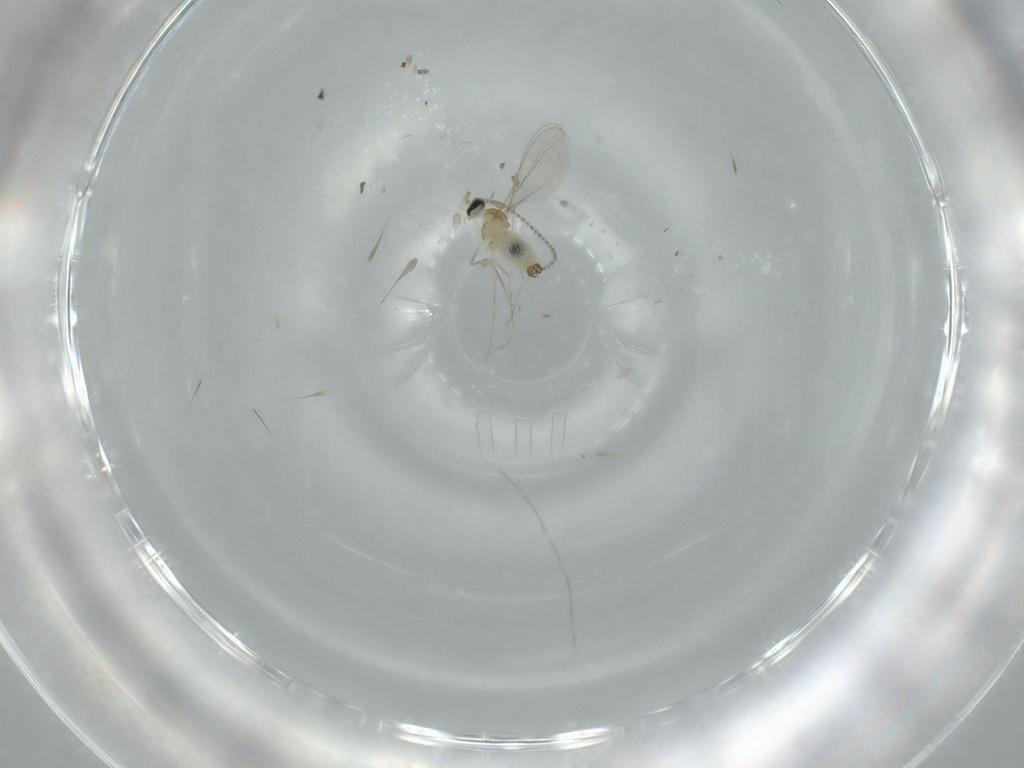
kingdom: Animalia
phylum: Arthropoda
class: Insecta
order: Diptera
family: Cecidomyiidae
